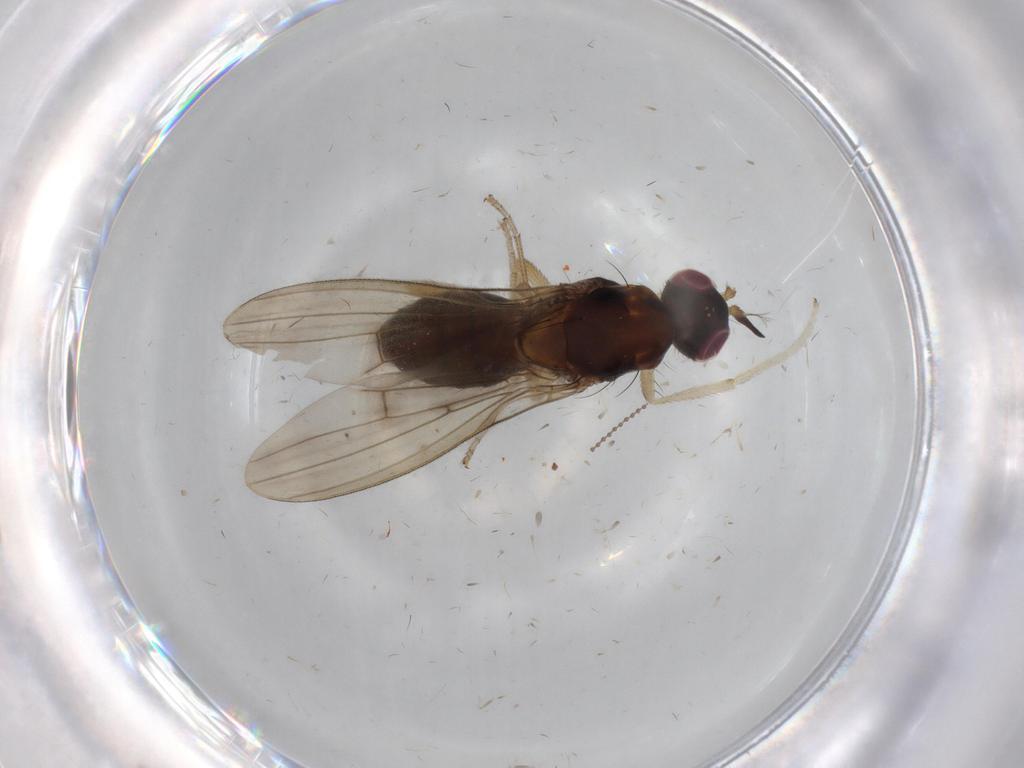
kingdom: Animalia
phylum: Arthropoda
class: Insecta
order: Diptera
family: Lauxaniidae
